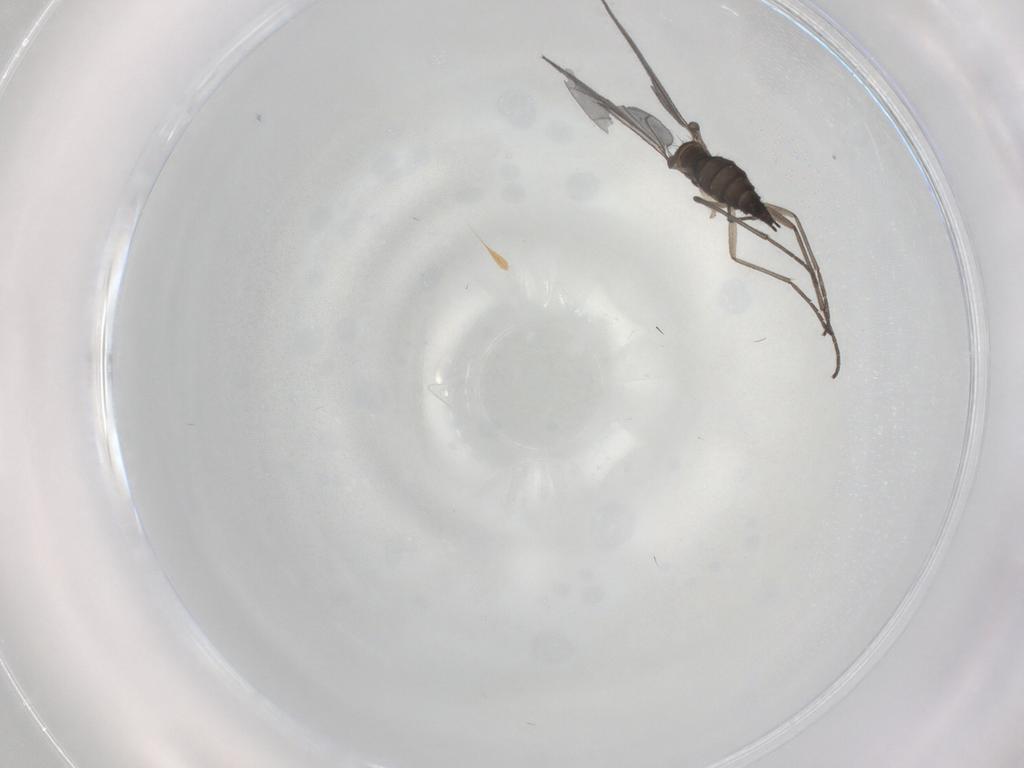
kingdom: Animalia
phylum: Arthropoda
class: Insecta
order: Diptera
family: Sciaridae
